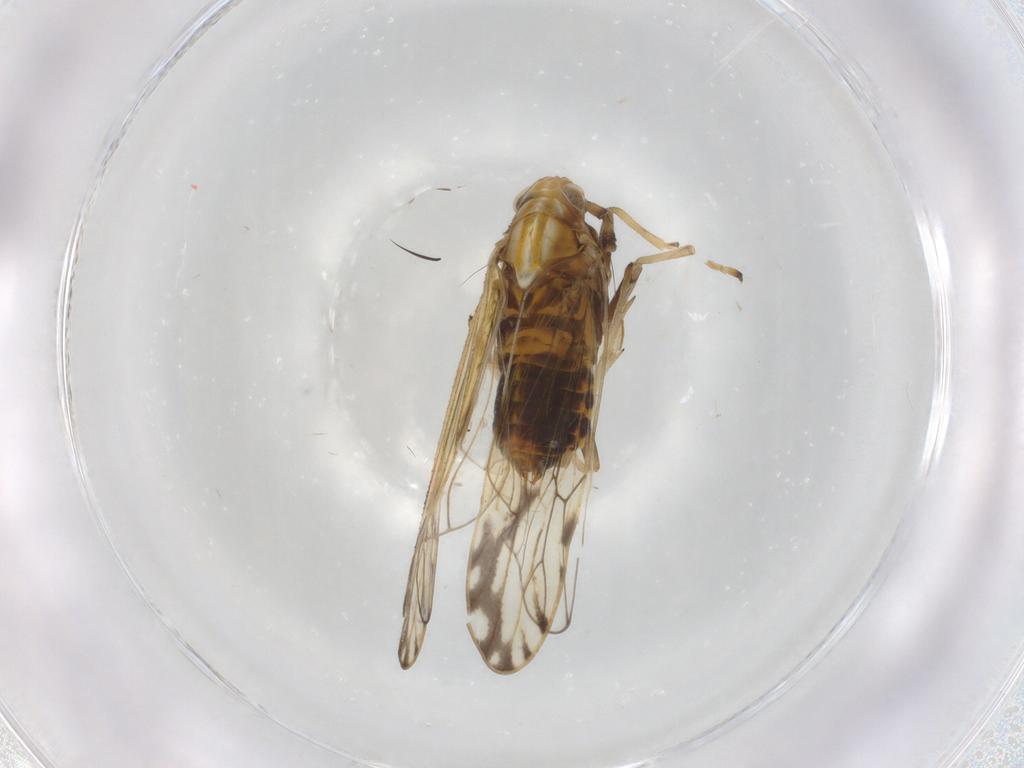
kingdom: Animalia
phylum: Arthropoda
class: Insecta
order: Hemiptera
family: Delphacidae
